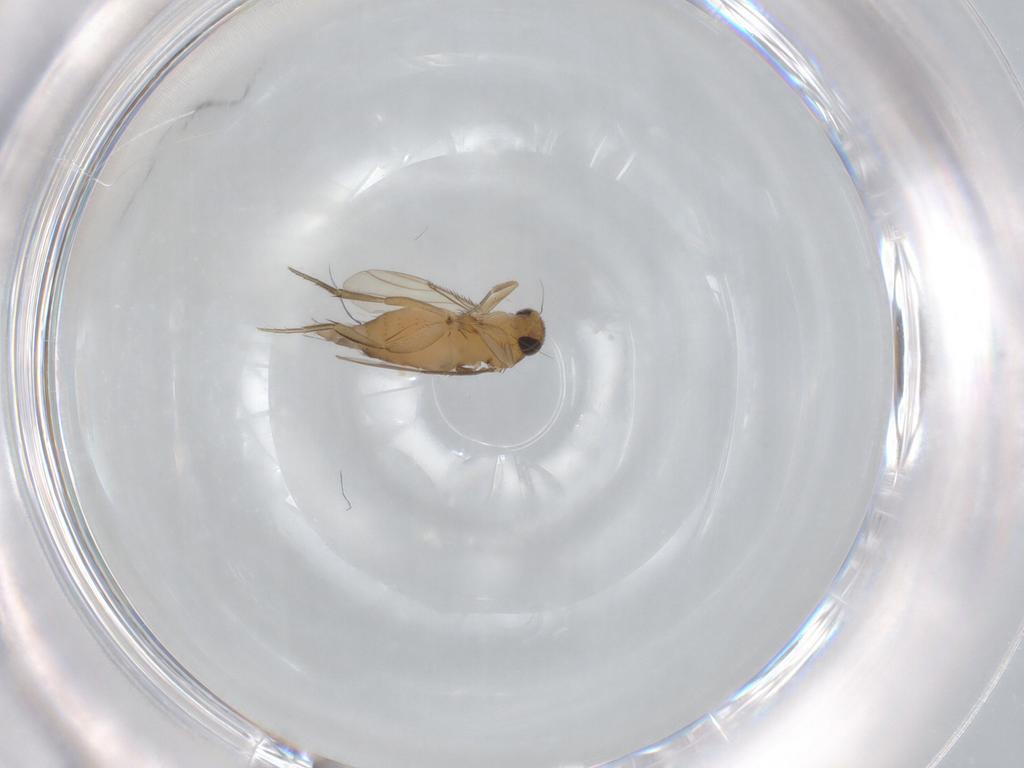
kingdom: Animalia
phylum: Arthropoda
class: Insecta
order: Diptera
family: Phoridae
